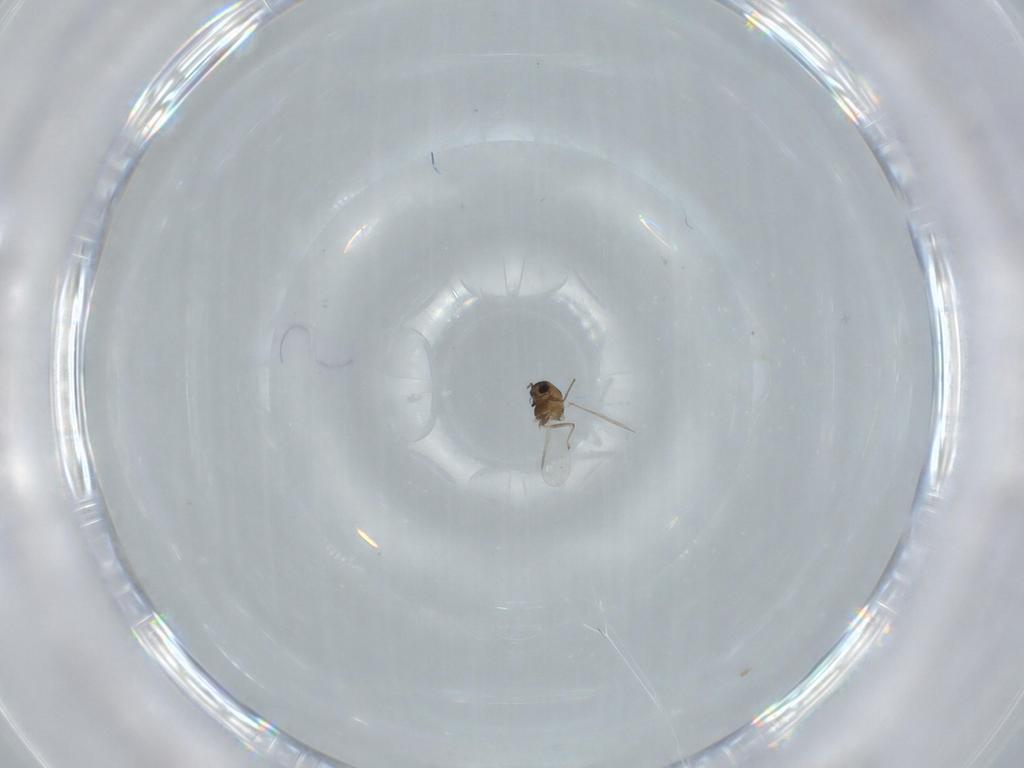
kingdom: Animalia
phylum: Arthropoda
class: Insecta
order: Diptera
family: Chironomidae
